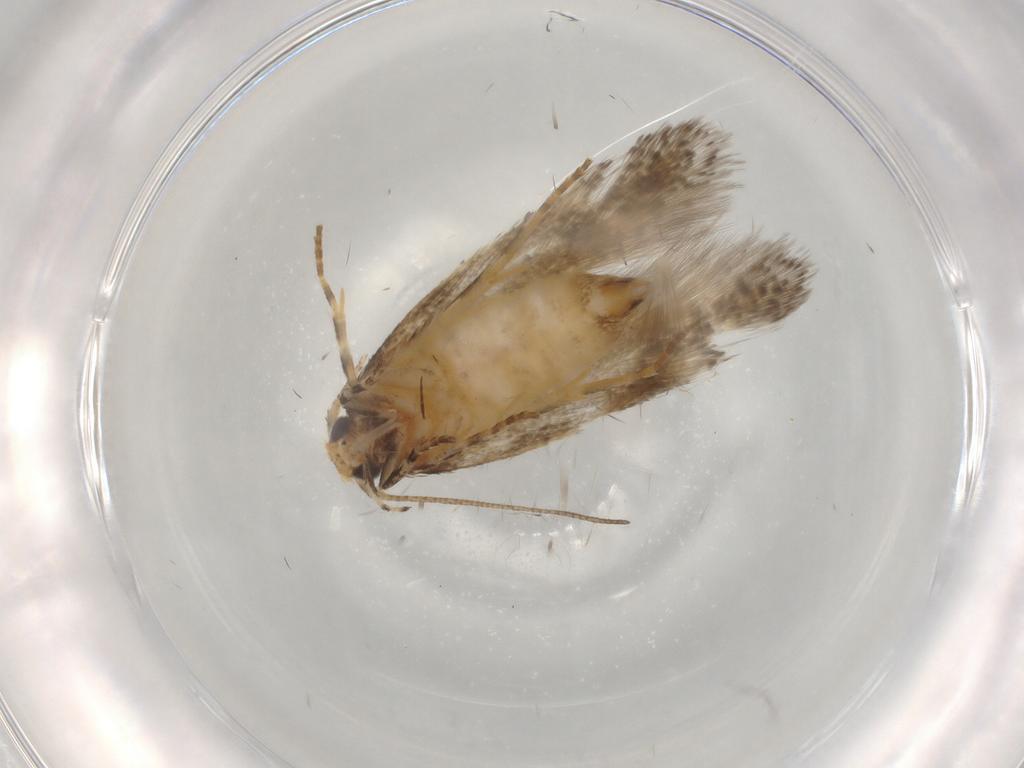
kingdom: Animalia
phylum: Arthropoda
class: Insecta
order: Lepidoptera
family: Gelechiidae
